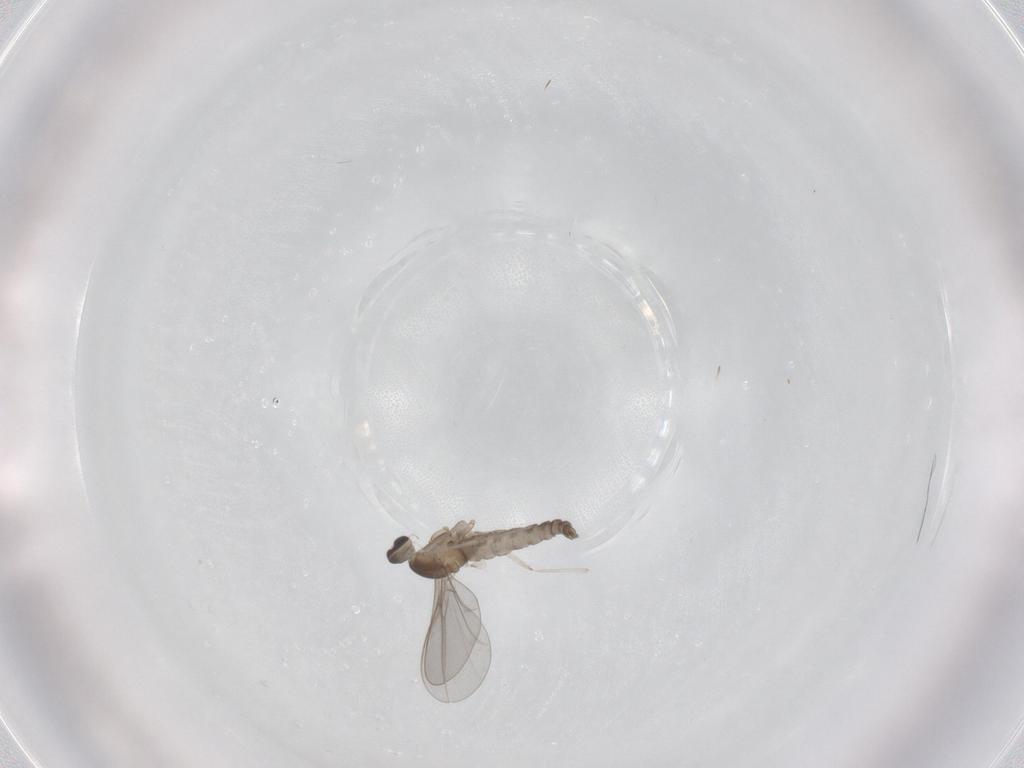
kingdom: Animalia
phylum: Arthropoda
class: Insecta
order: Diptera
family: Cecidomyiidae
